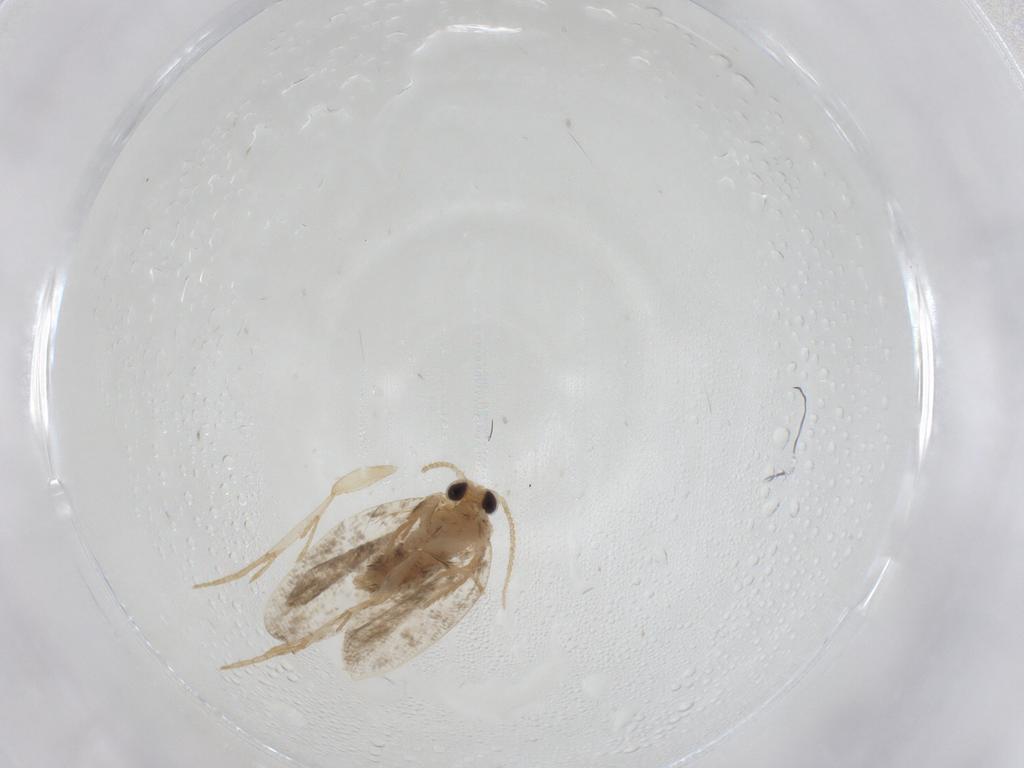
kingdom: Animalia
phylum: Arthropoda
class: Insecta
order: Lepidoptera
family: Psychidae
